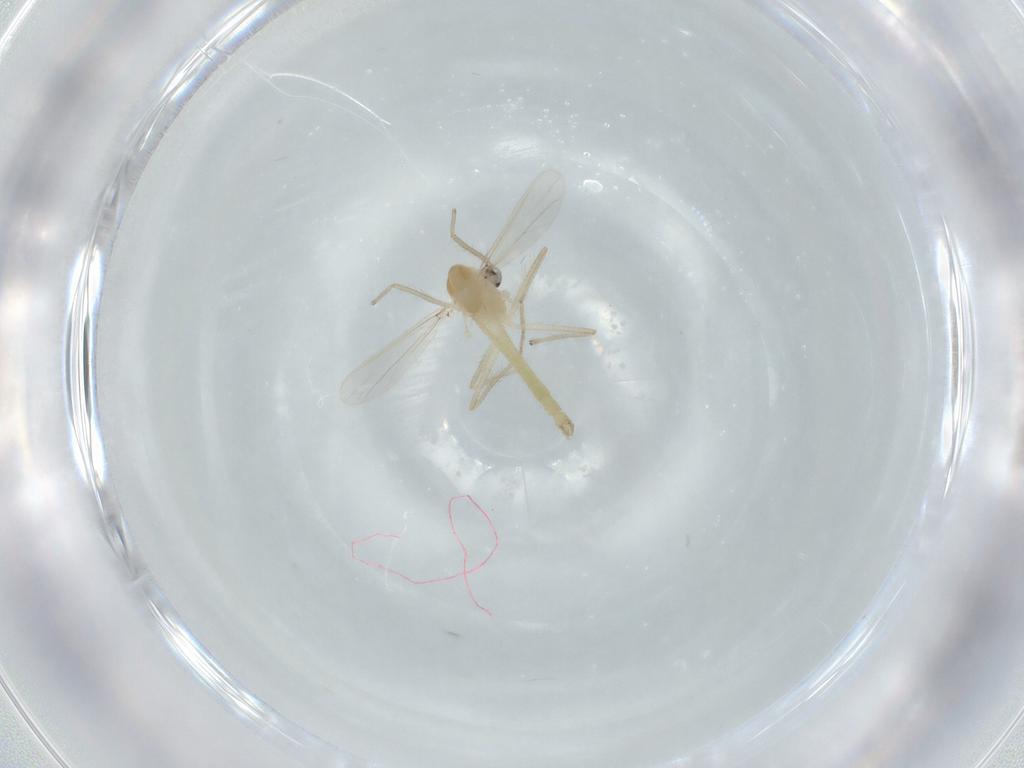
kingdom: Animalia
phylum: Arthropoda
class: Insecta
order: Diptera
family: Chironomidae
